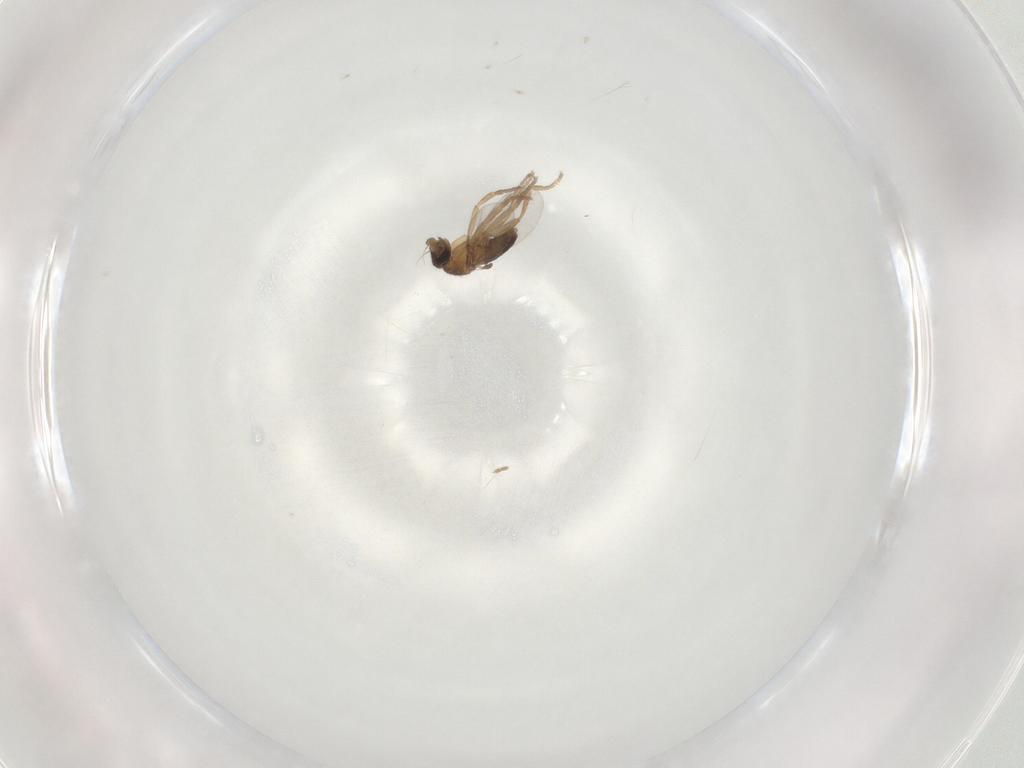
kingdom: Animalia
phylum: Arthropoda
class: Insecta
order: Diptera
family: Phoridae
